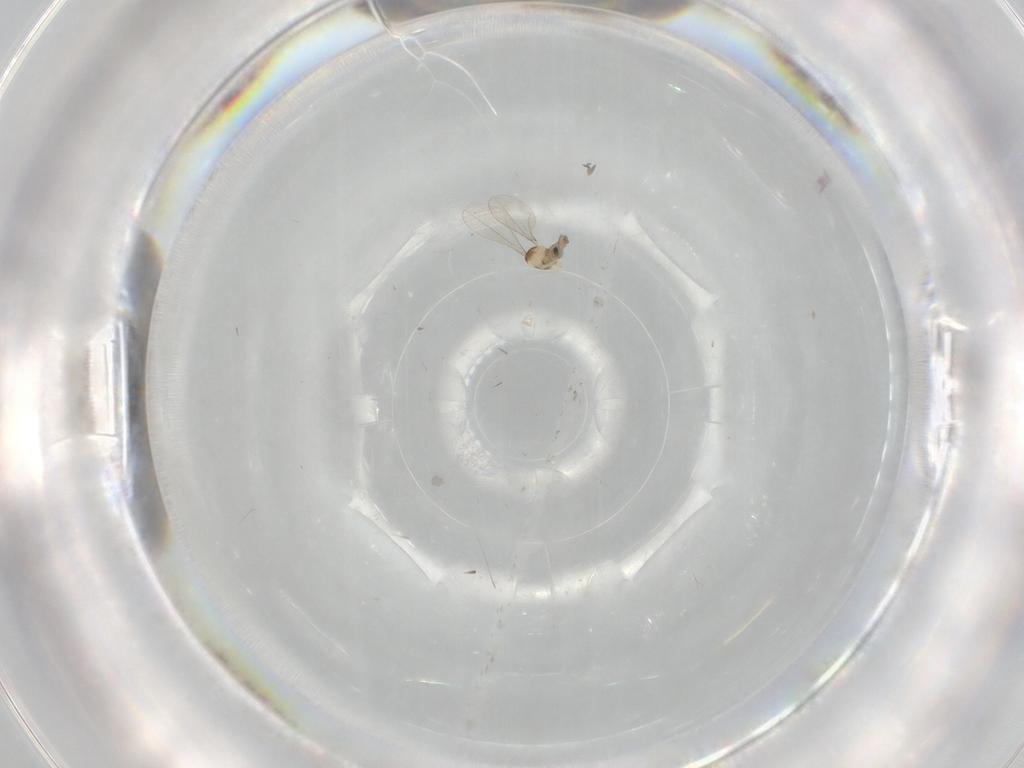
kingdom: Animalia
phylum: Arthropoda
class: Insecta
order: Diptera
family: Cecidomyiidae
